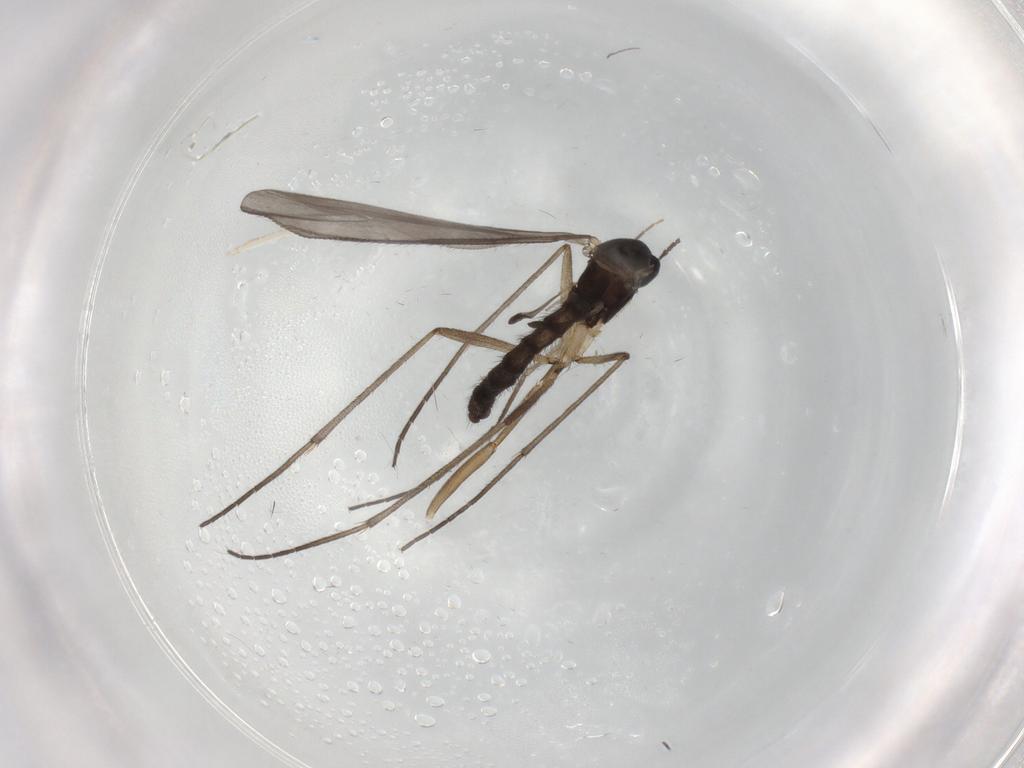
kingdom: Animalia
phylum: Arthropoda
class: Insecta
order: Diptera
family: Sciaridae
